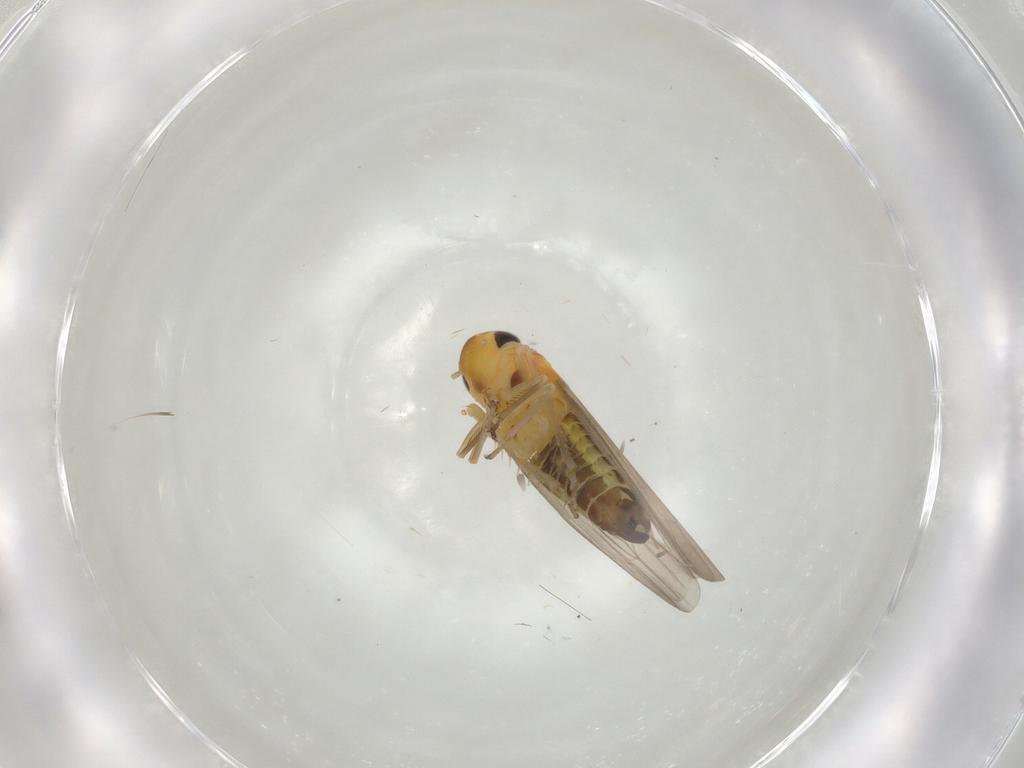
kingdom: Animalia
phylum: Arthropoda
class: Insecta
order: Hemiptera
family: Cicadellidae
